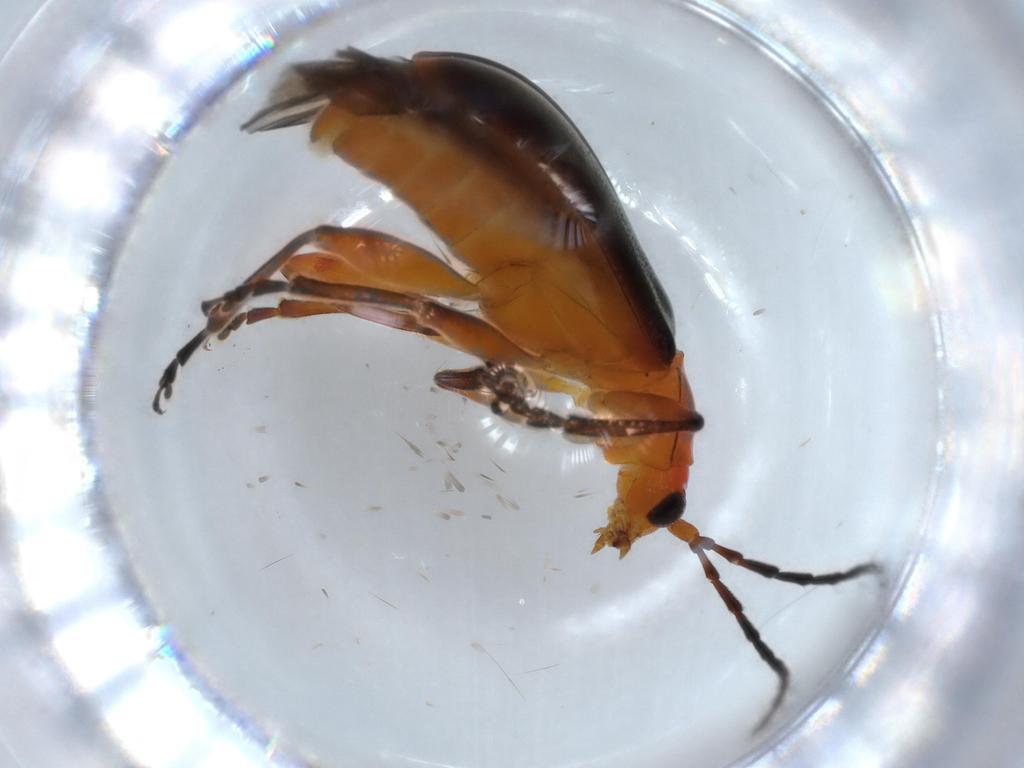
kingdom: Animalia
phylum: Arthropoda
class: Insecta
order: Coleoptera
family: Chrysomelidae
